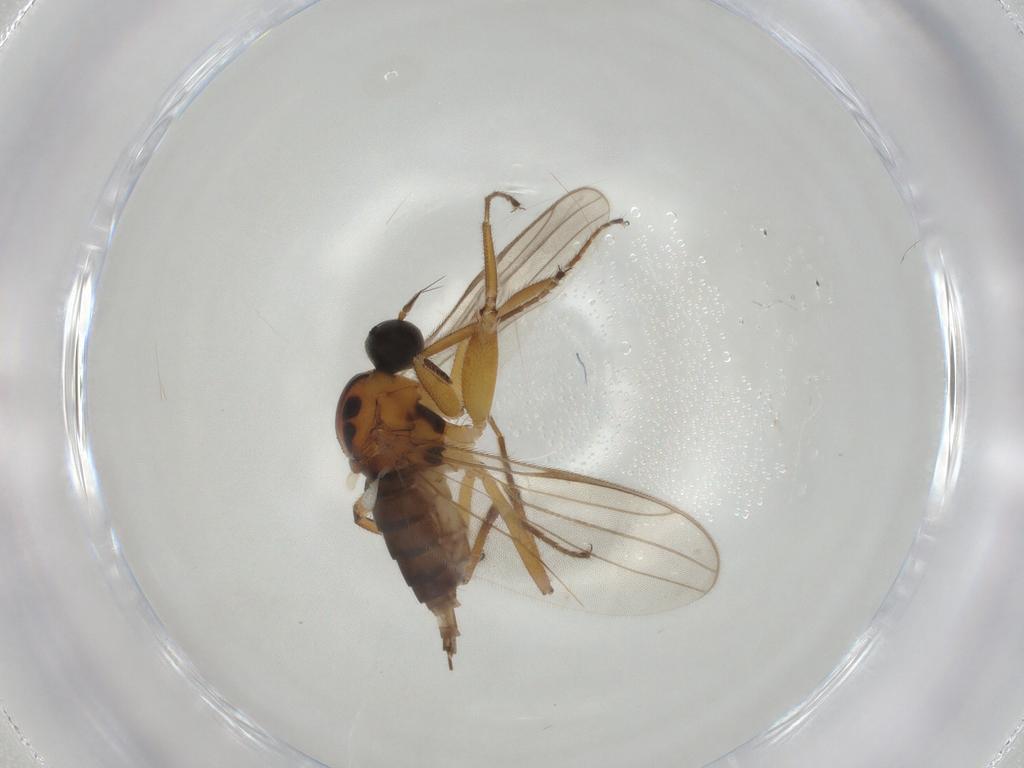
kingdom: Animalia
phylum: Arthropoda
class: Insecta
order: Diptera
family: Hybotidae
